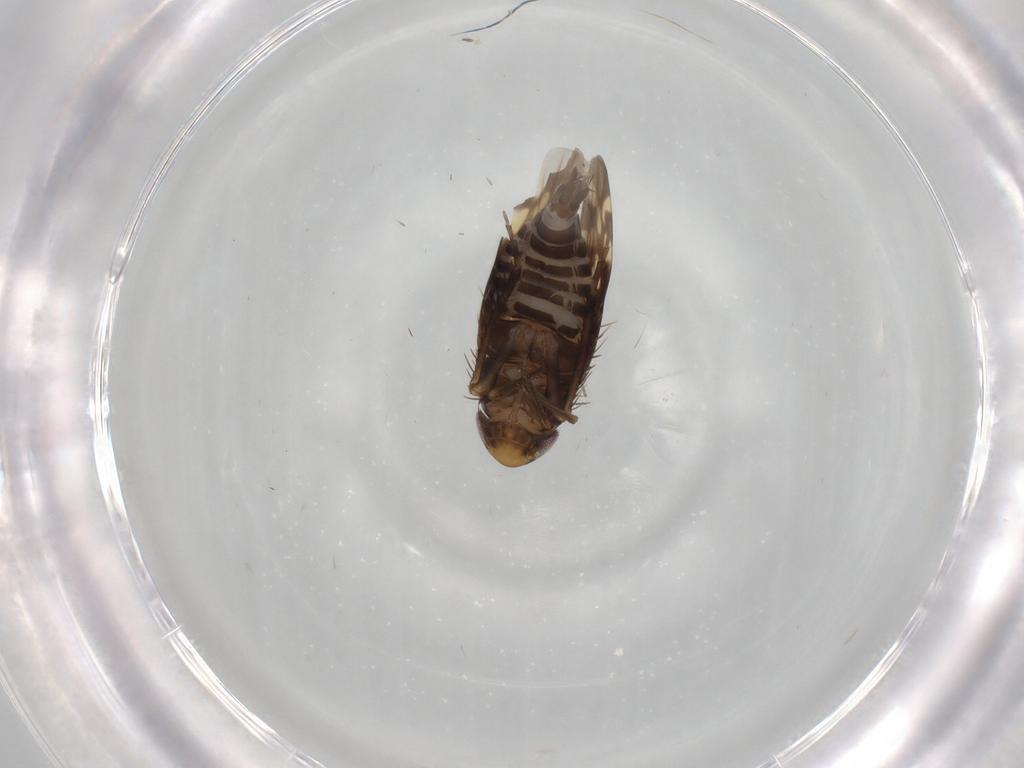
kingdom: Animalia
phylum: Arthropoda
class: Insecta
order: Hemiptera
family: Cicadellidae
